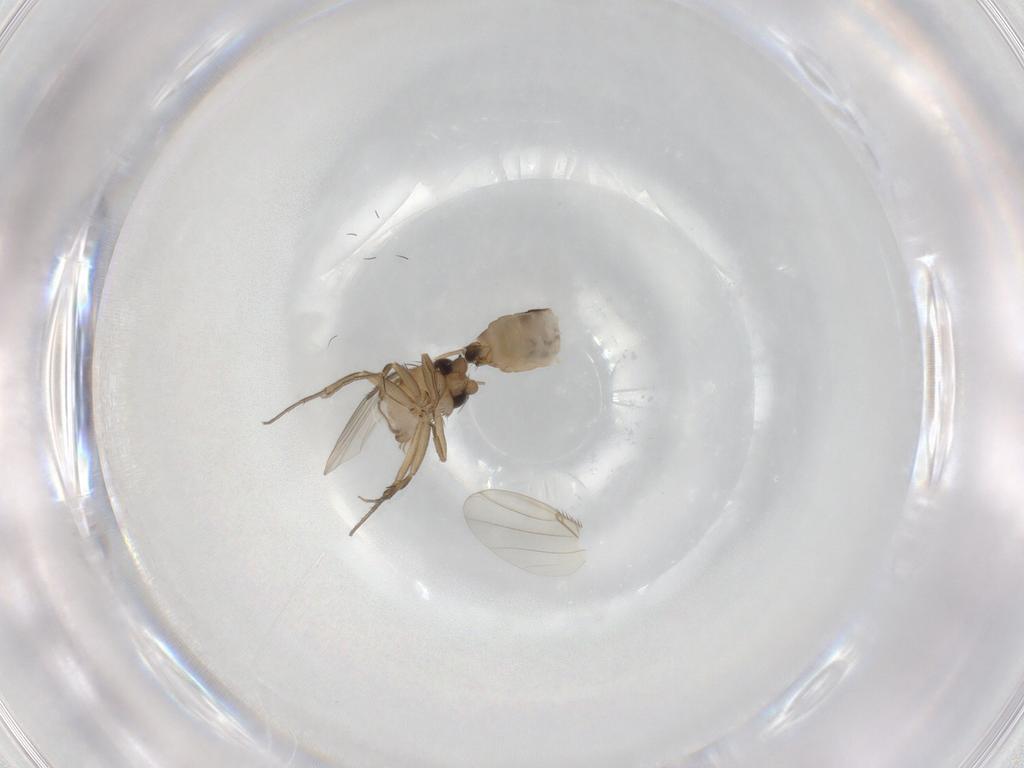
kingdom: Animalia
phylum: Arthropoda
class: Insecta
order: Diptera
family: Phoridae
